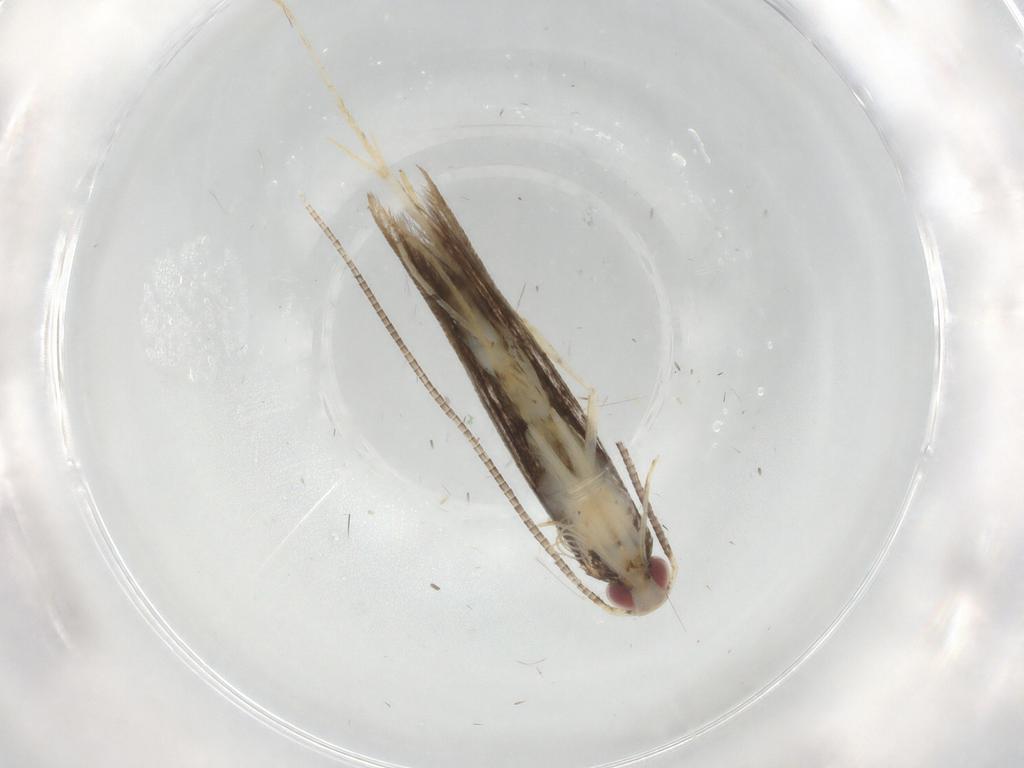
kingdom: Animalia
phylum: Arthropoda
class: Insecta
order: Lepidoptera
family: Gracillariidae
